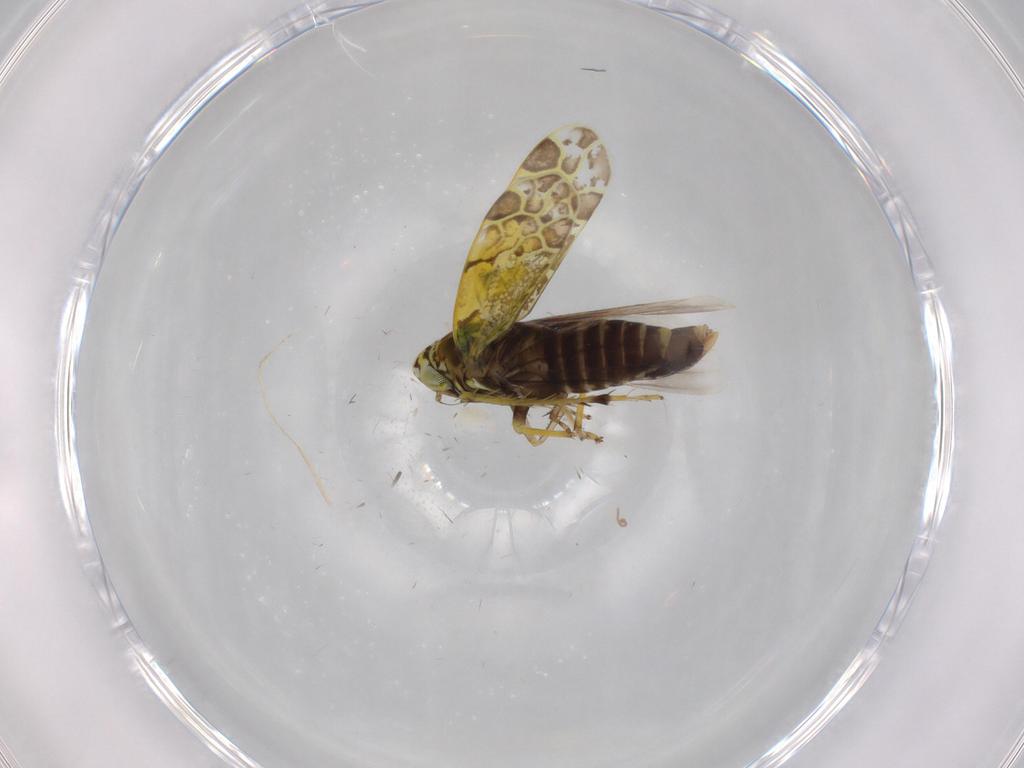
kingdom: Animalia
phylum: Arthropoda
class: Insecta
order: Hemiptera
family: Cicadellidae
